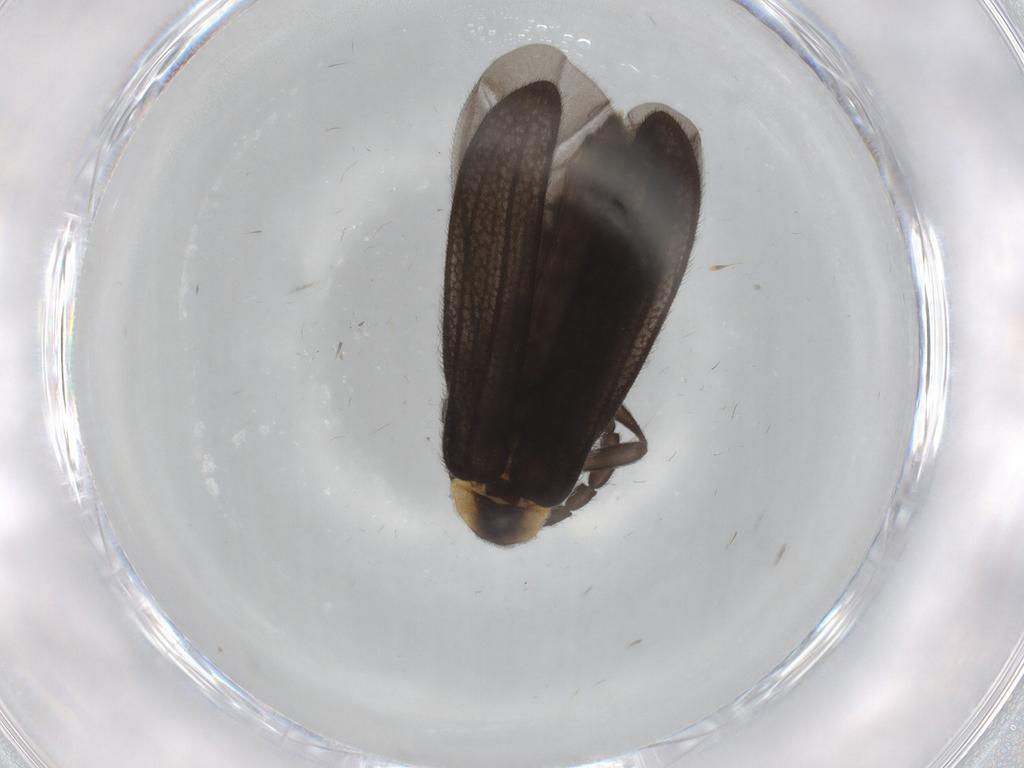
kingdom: Animalia
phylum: Arthropoda
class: Insecta
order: Coleoptera
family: Lycidae
